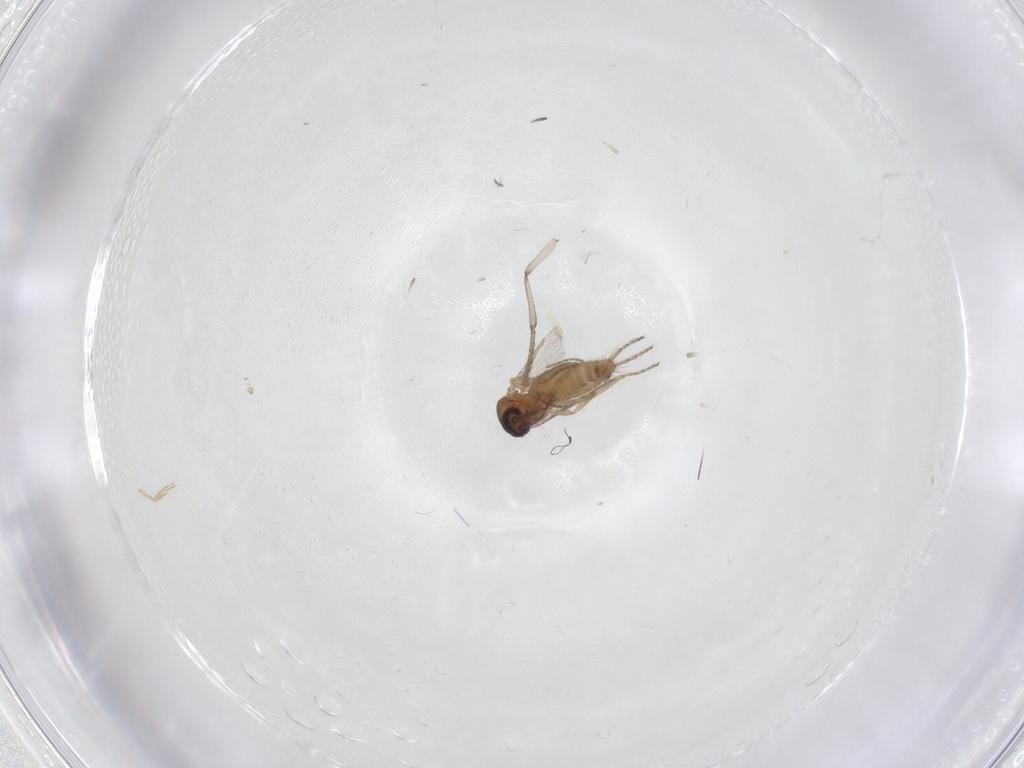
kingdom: Animalia
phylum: Arthropoda
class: Insecta
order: Diptera
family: Ceratopogonidae
